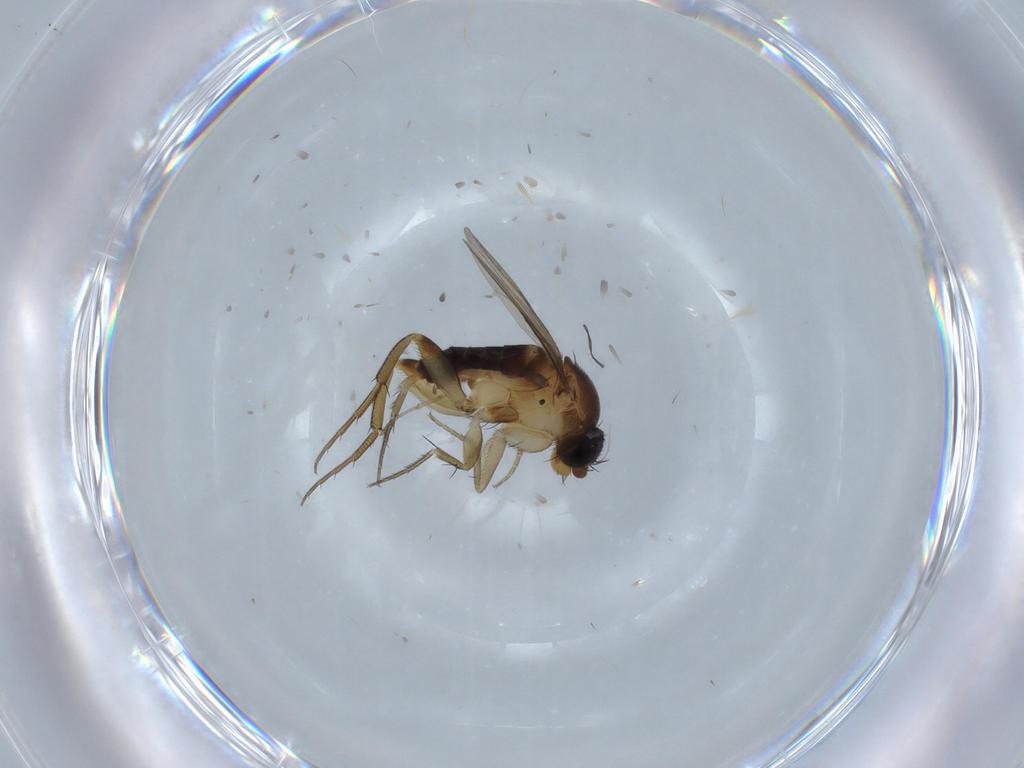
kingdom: Animalia
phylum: Arthropoda
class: Insecta
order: Diptera
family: Phoridae
